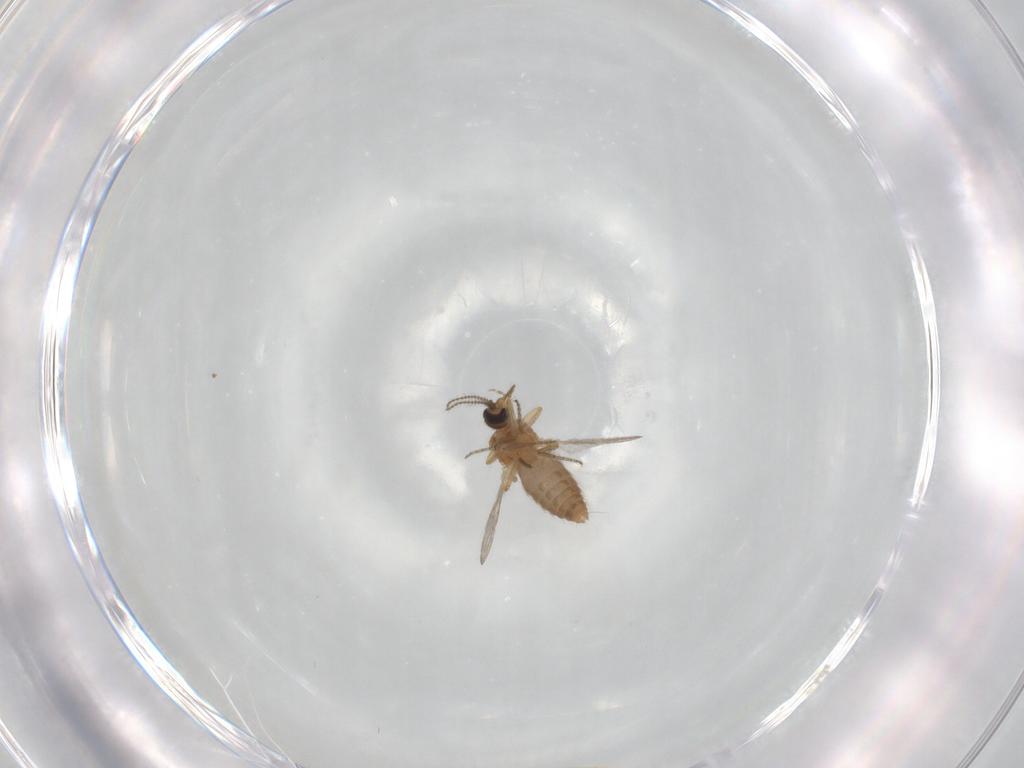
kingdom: Animalia
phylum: Arthropoda
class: Insecta
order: Diptera
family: Ceratopogonidae
